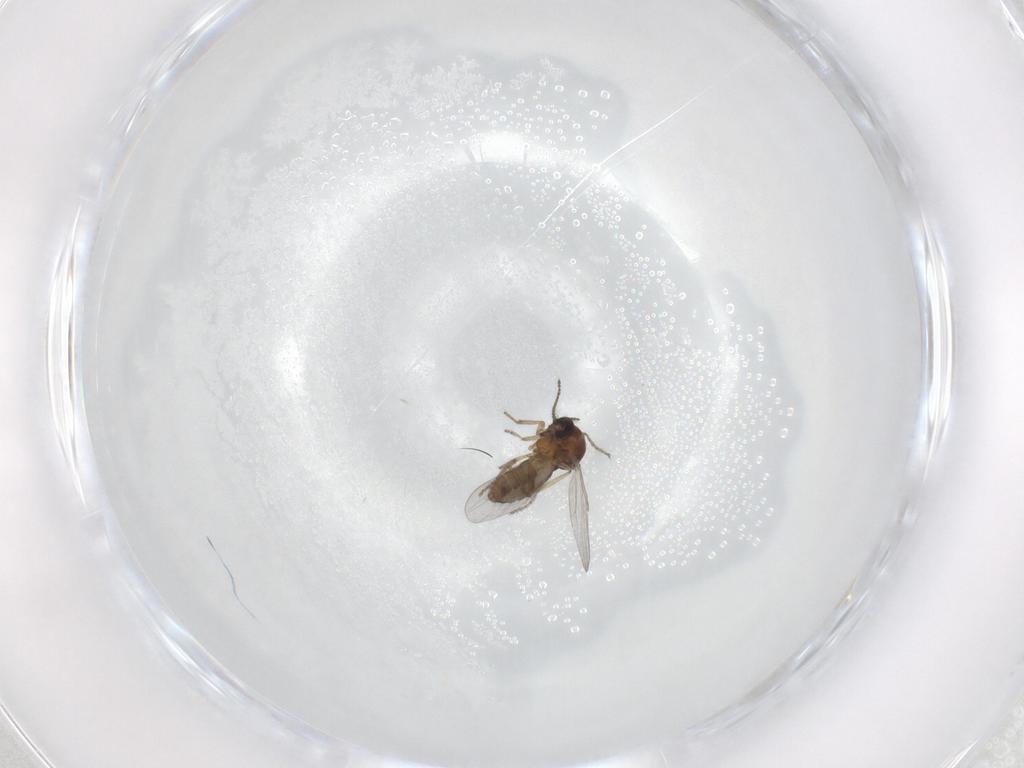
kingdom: Animalia
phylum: Arthropoda
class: Insecta
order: Diptera
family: Ceratopogonidae
